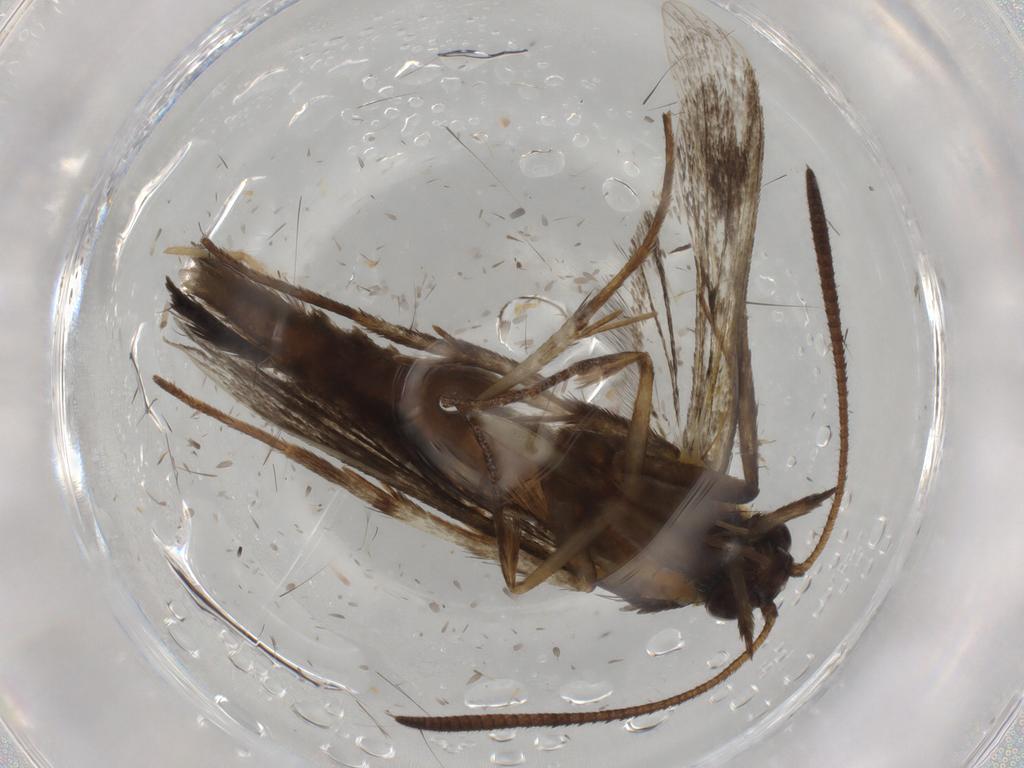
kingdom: Animalia
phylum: Arthropoda
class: Insecta
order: Lepidoptera
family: Sesiidae
